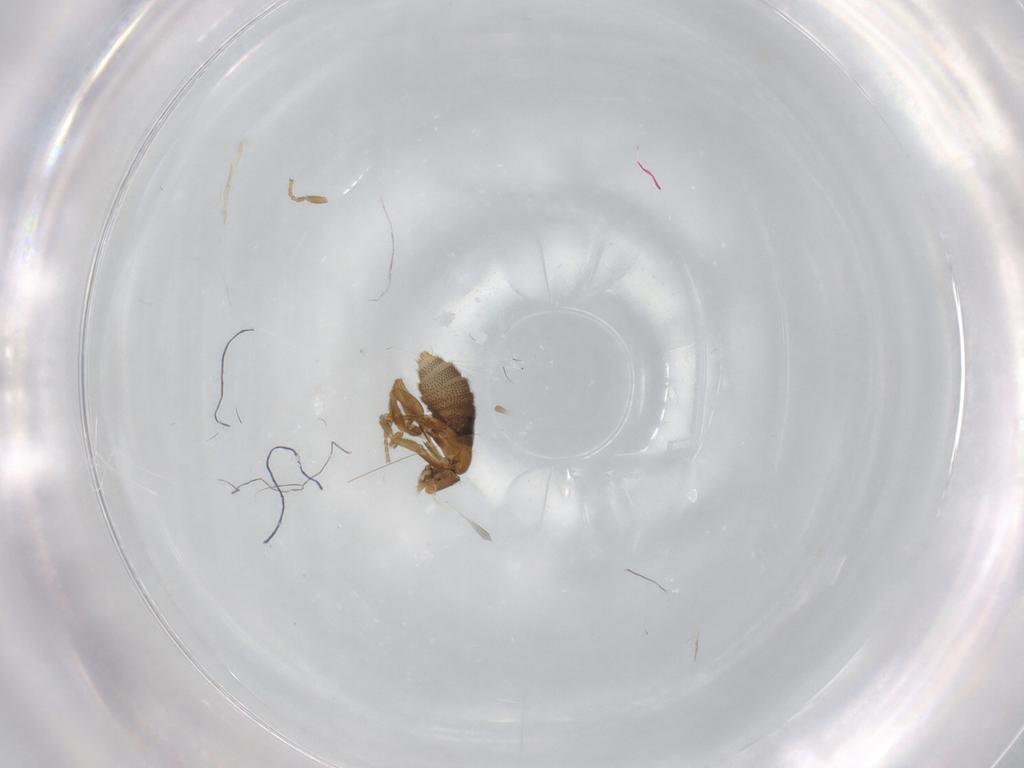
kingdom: Animalia
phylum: Arthropoda
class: Insecta
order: Diptera
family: Phoridae
